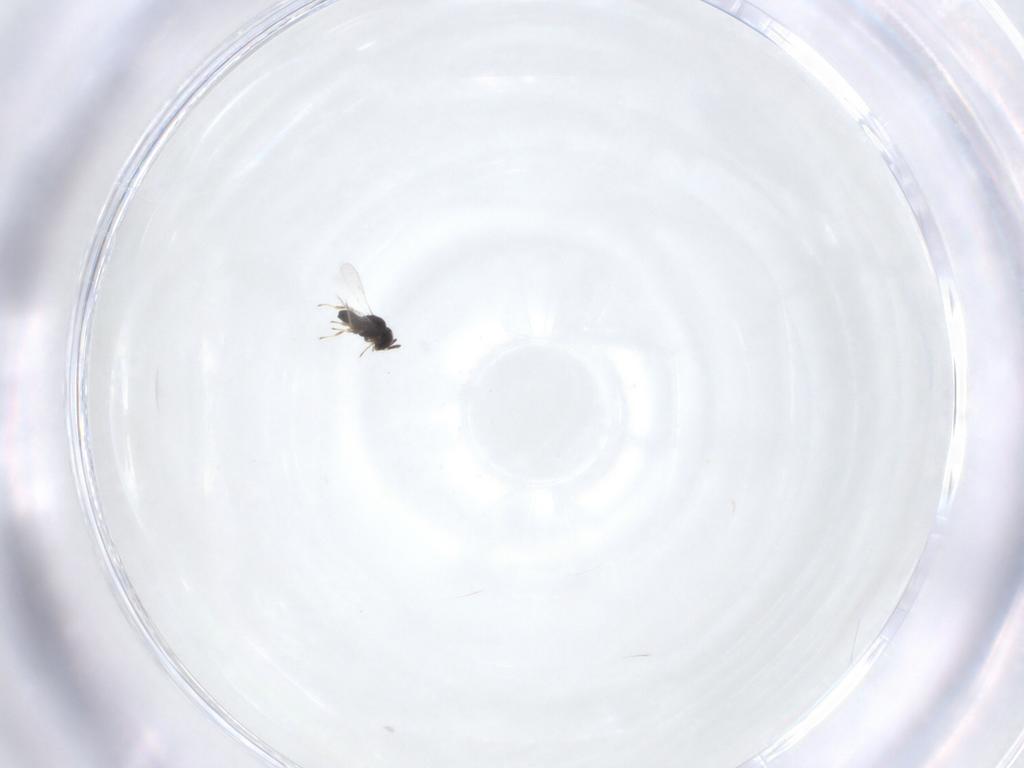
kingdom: Animalia
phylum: Arthropoda
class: Insecta
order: Hymenoptera
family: Scelionidae
